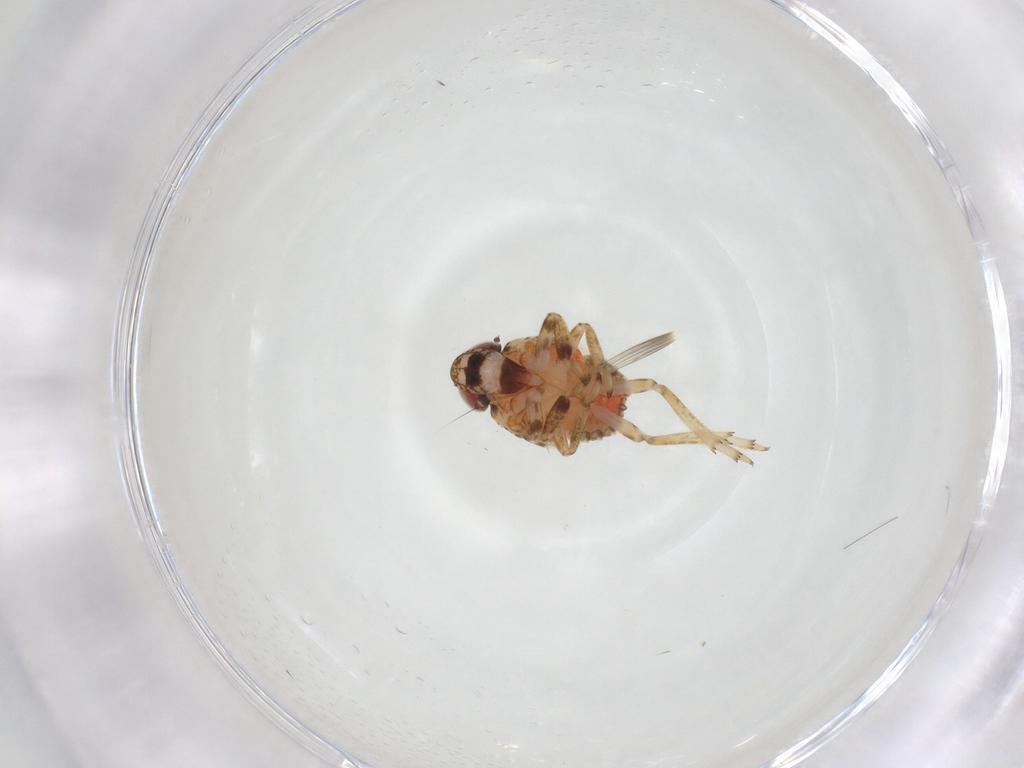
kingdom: Animalia
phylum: Arthropoda
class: Insecta
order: Hemiptera
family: Issidae
